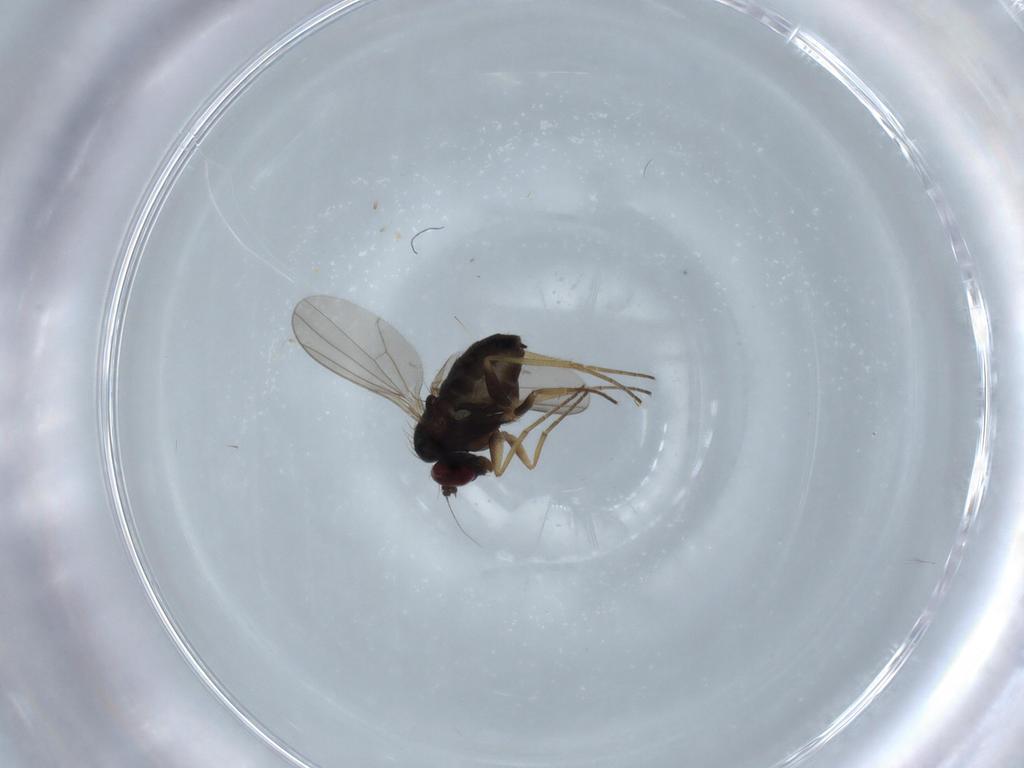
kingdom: Animalia
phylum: Arthropoda
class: Insecta
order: Diptera
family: Dolichopodidae
